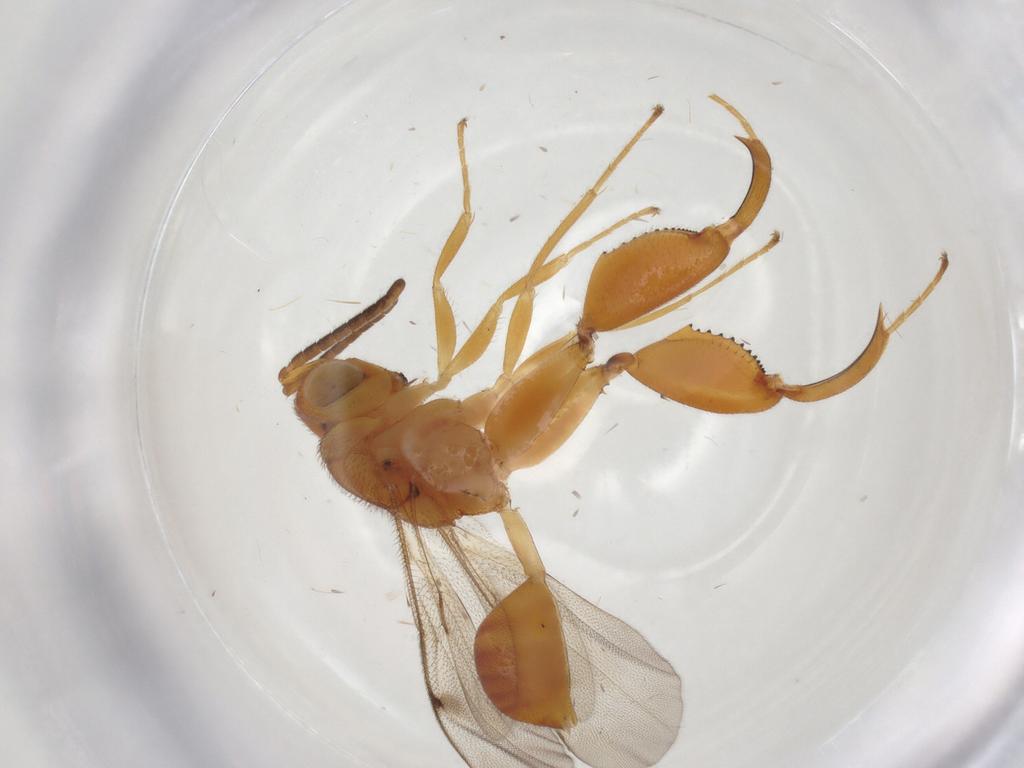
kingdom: Animalia
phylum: Arthropoda
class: Insecta
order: Hymenoptera
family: Chalcididae
